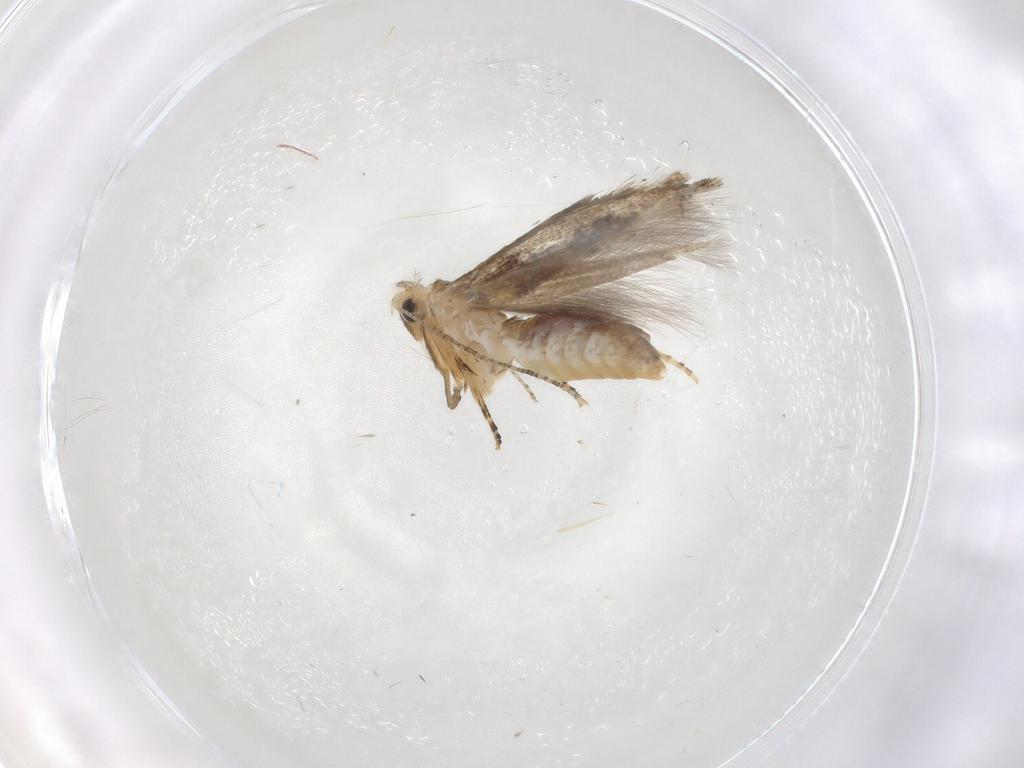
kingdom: Animalia
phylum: Arthropoda
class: Insecta
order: Lepidoptera
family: Bucculatricidae
